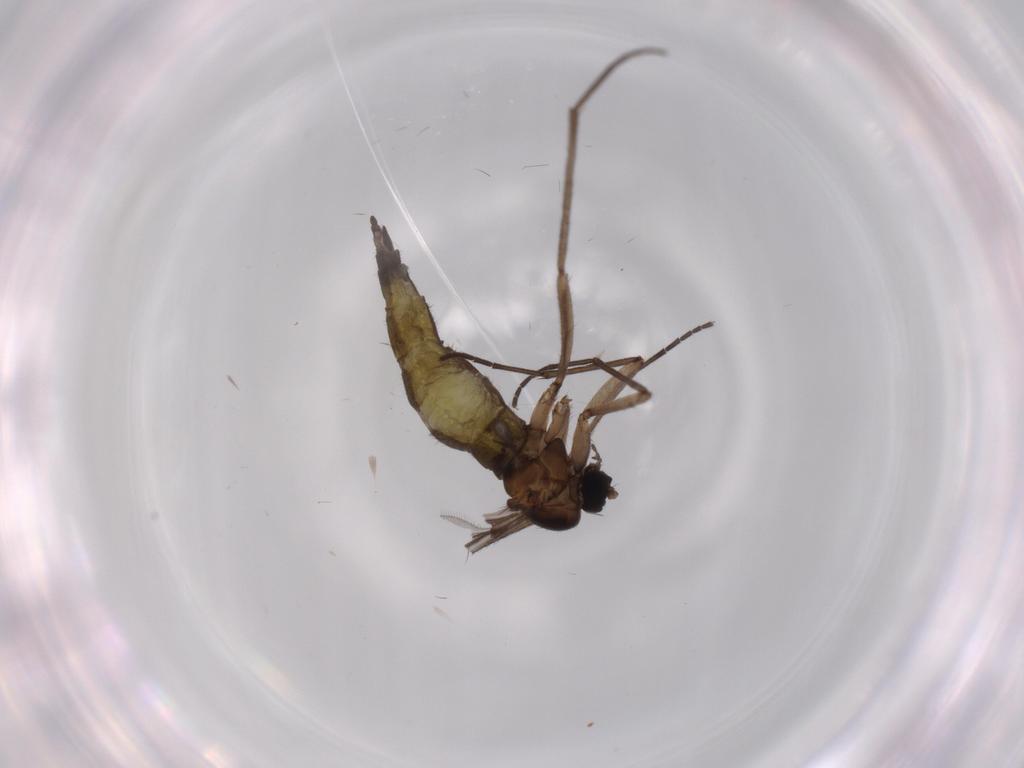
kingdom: Animalia
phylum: Arthropoda
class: Insecta
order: Diptera
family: Sciaridae
